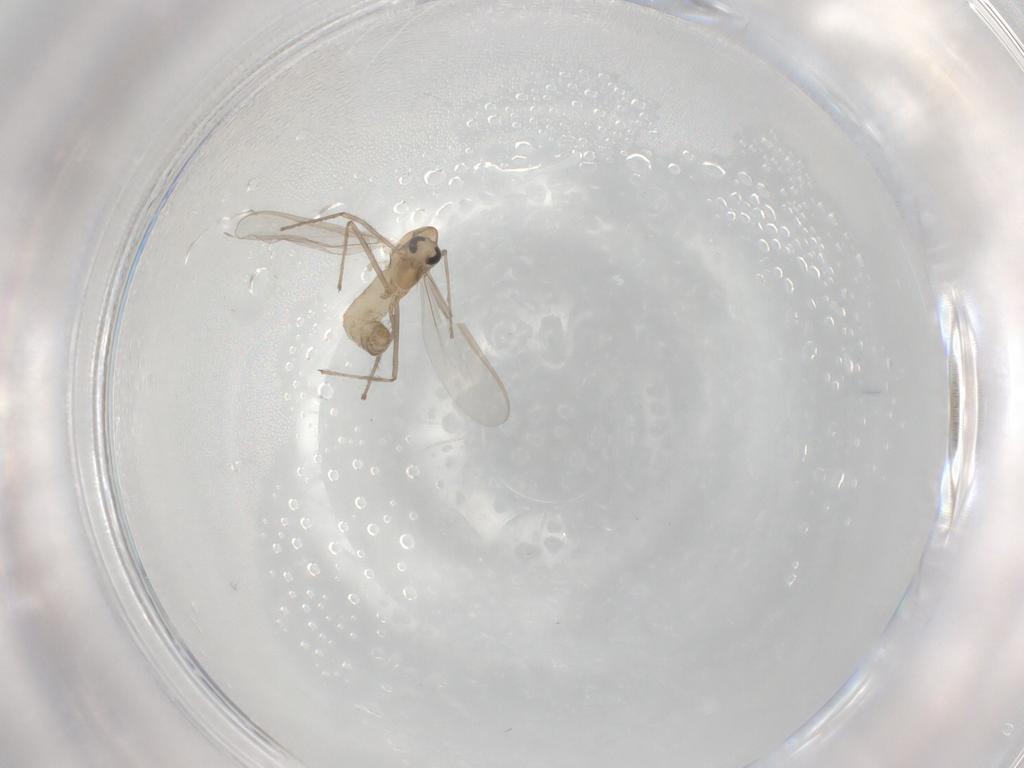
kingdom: Animalia
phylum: Arthropoda
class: Insecta
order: Diptera
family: Chironomidae
